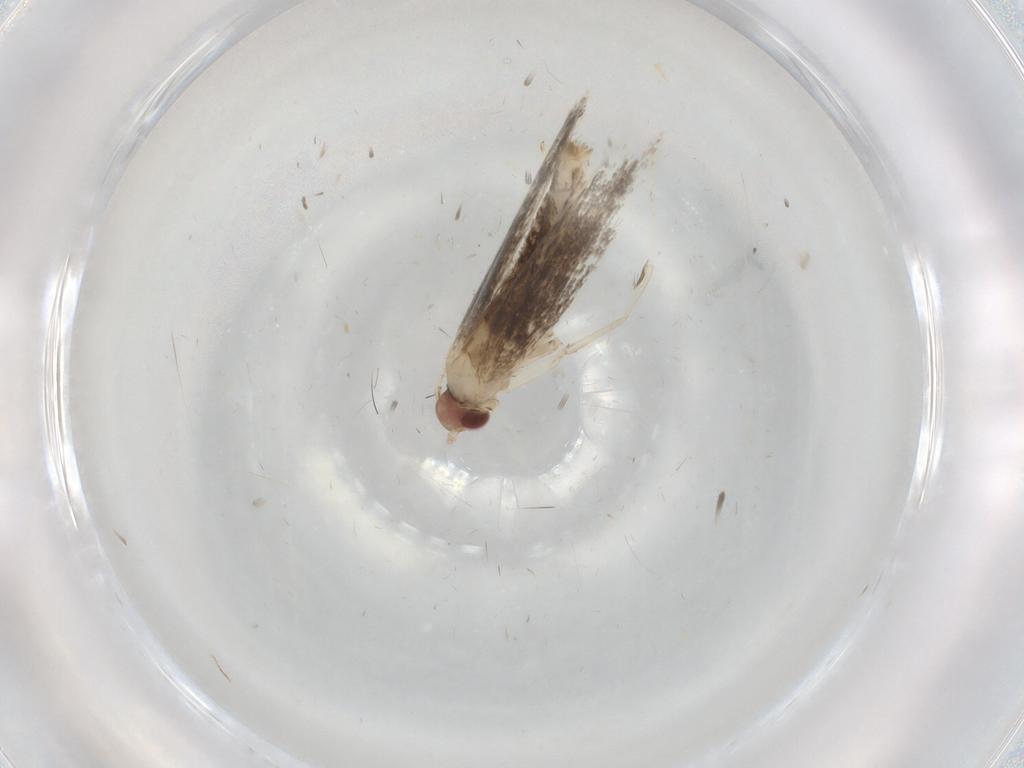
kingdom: Animalia
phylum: Arthropoda
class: Insecta
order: Lepidoptera
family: Gracillariidae
